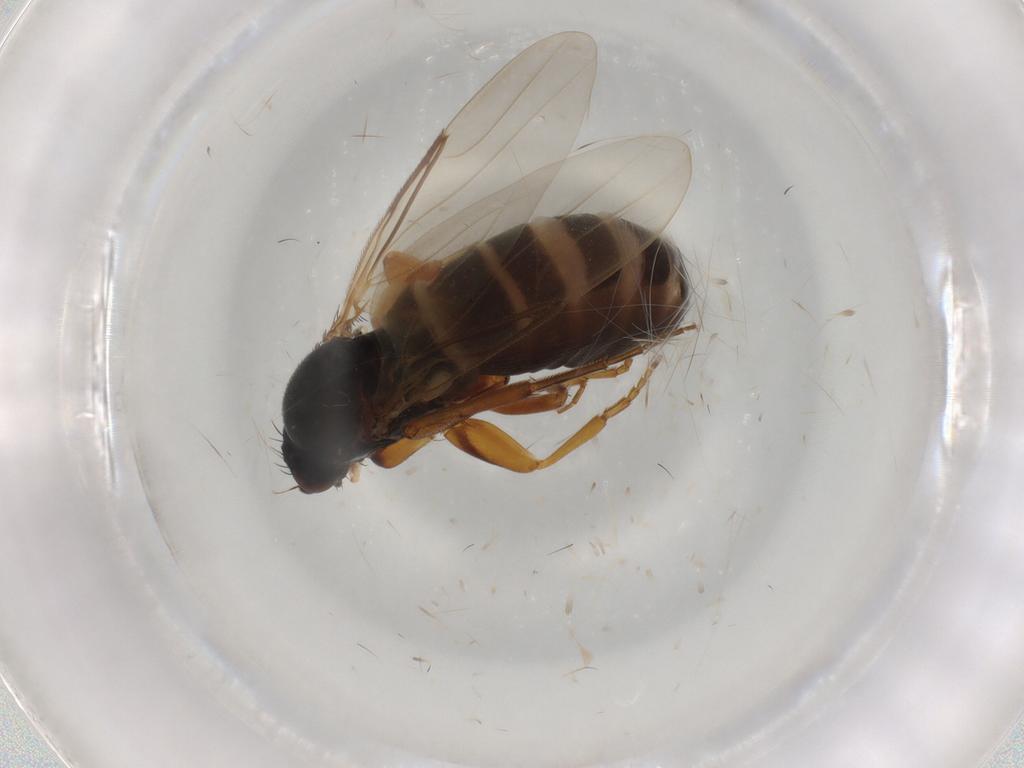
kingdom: Animalia
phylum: Arthropoda
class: Insecta
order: Diptera
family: Phoridae
